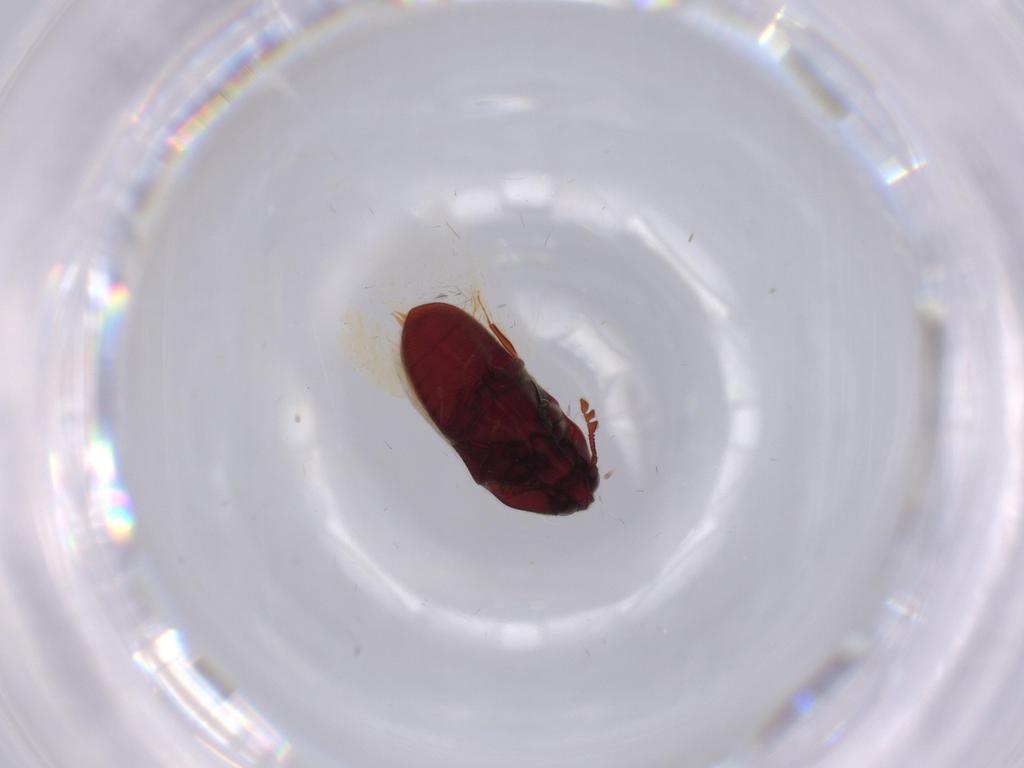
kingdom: Animalia
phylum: Arthropoda
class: Insecta
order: Coleoptera
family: Throscidae
